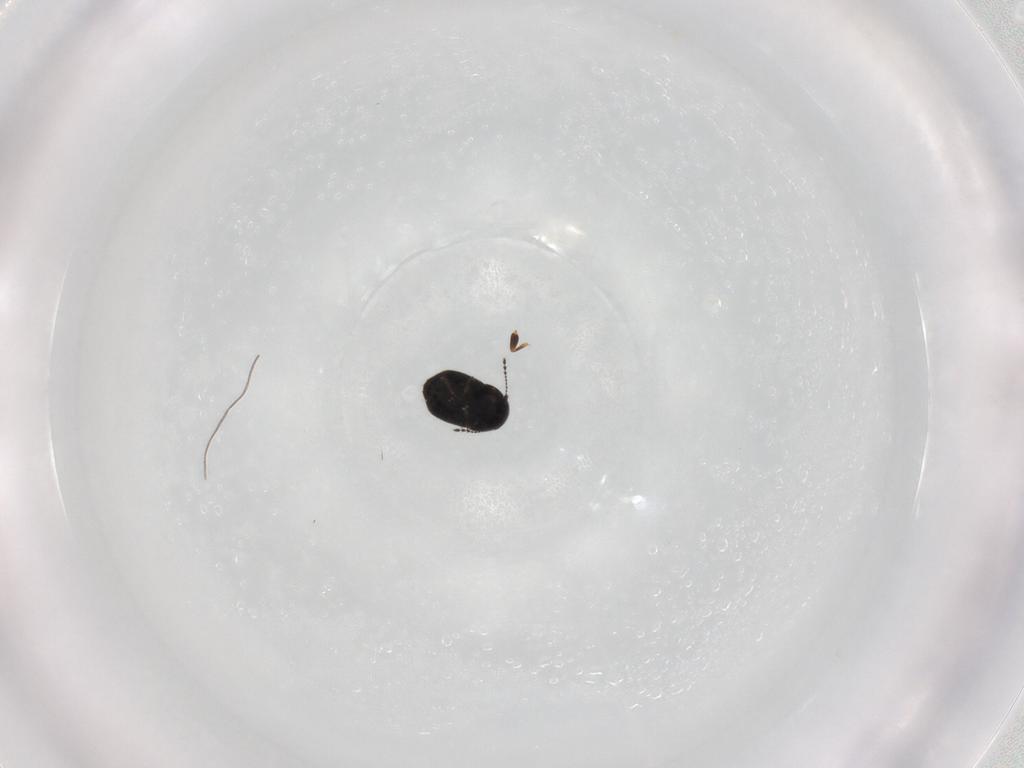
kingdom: Animalia
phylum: Arthropoda
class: Insecta
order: Coleoptera
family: Ptiliidae
